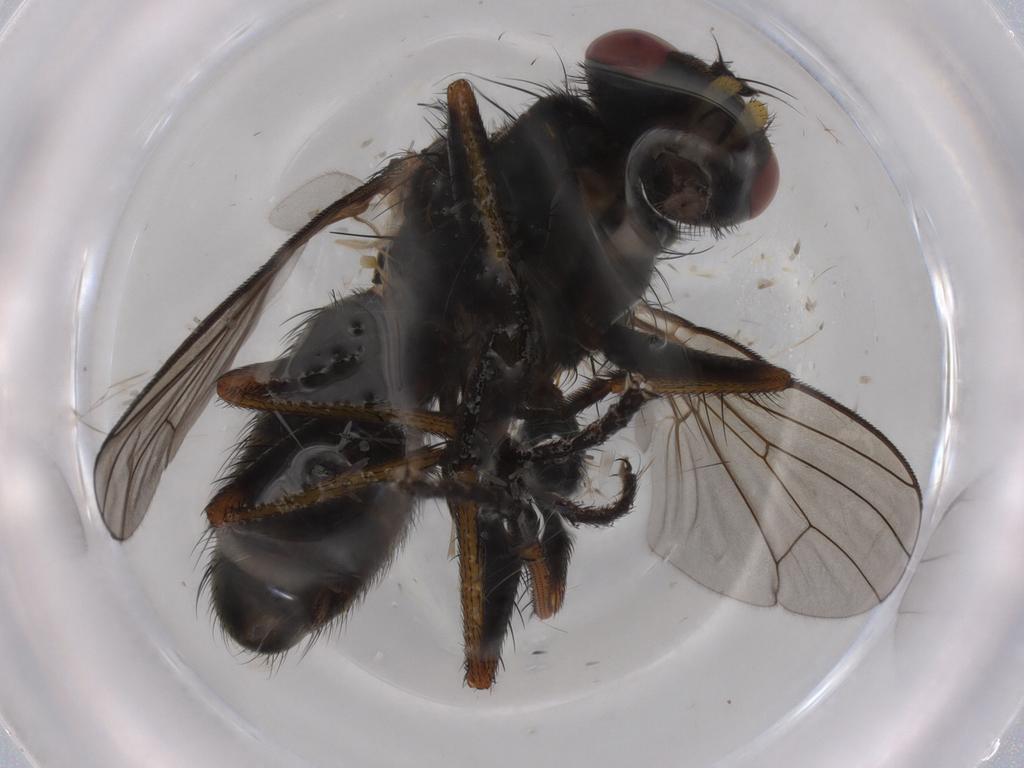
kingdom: Animalia
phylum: Arthropoda
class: Insecta
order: Diptera
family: Muscidae
